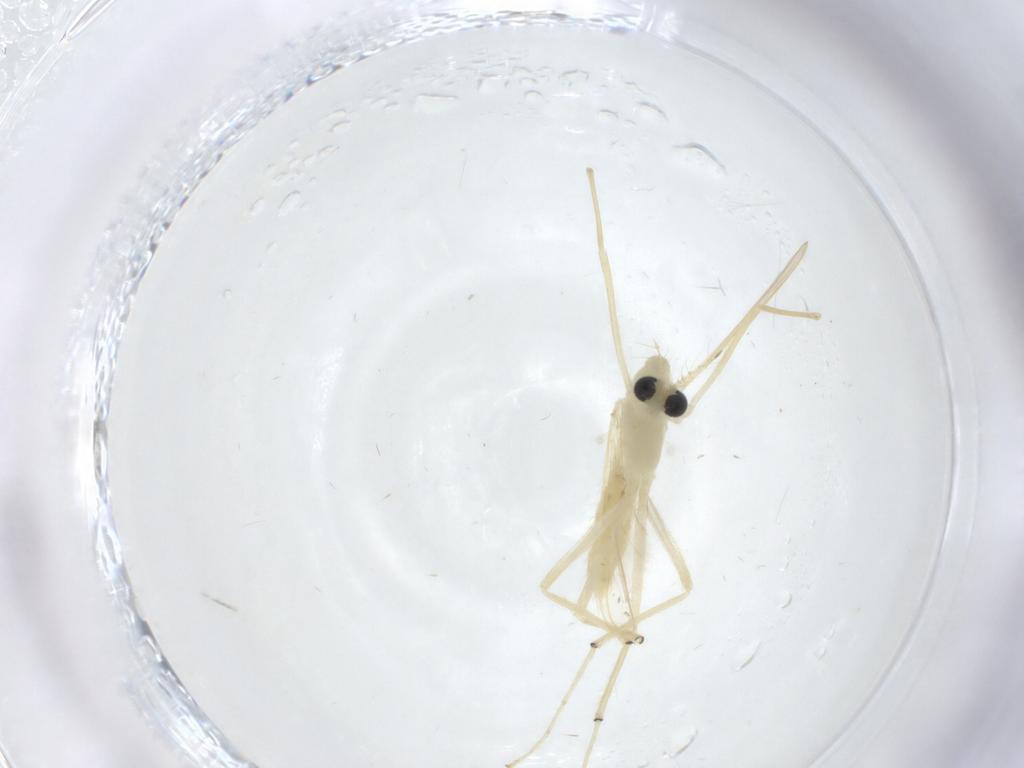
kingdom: Animalia
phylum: Arthropoda
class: Insecta
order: Diptera
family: Chironomidae
